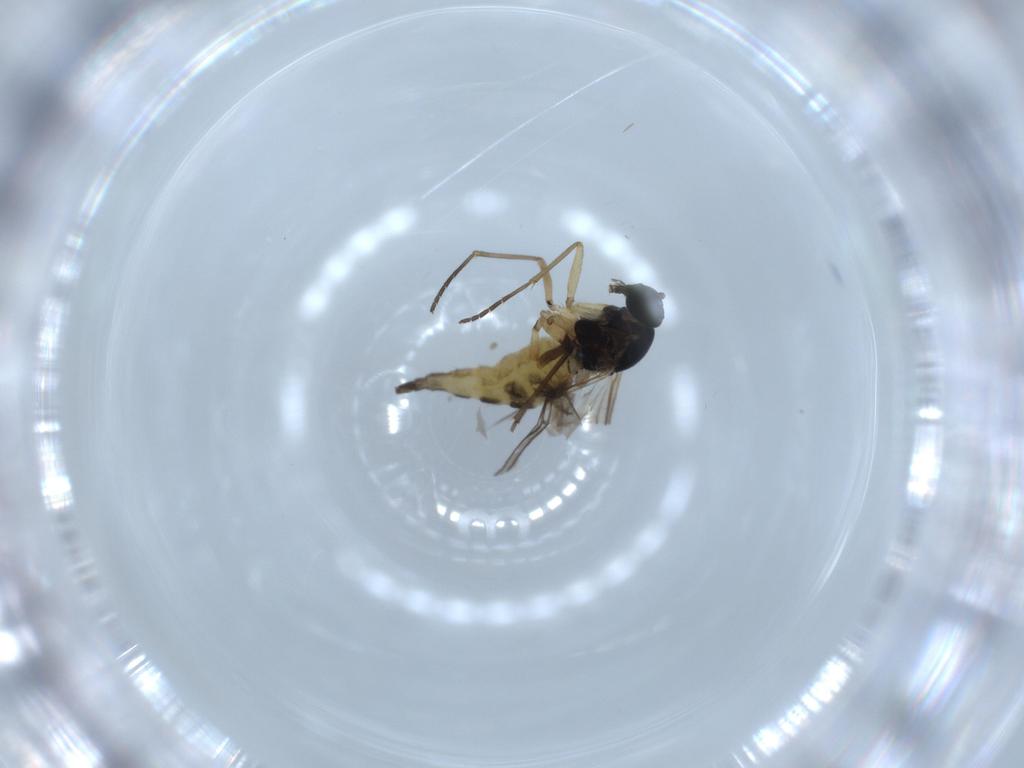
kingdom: Animalia
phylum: Arthropoda
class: Insecta
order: Diptera
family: Sciaridae
